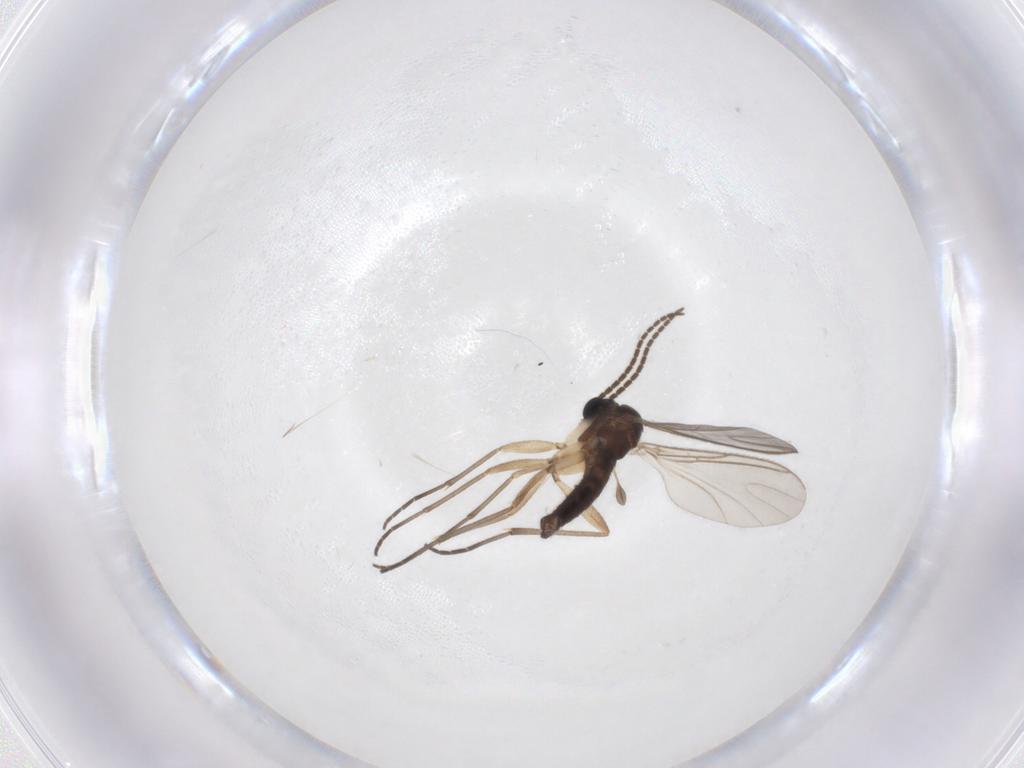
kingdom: Animalia
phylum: Arthropoda
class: Insecta
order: Diptera
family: Sciaridae
